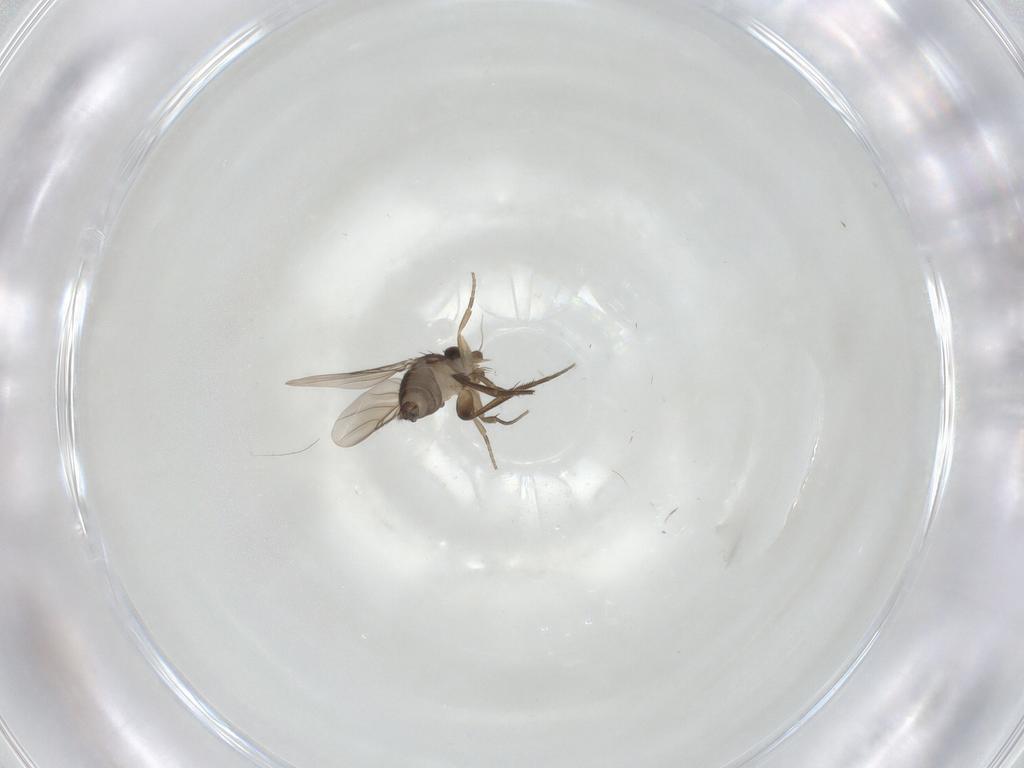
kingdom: Animalia
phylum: Arthropoda
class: Insecta
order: Diptera
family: Phoridae
